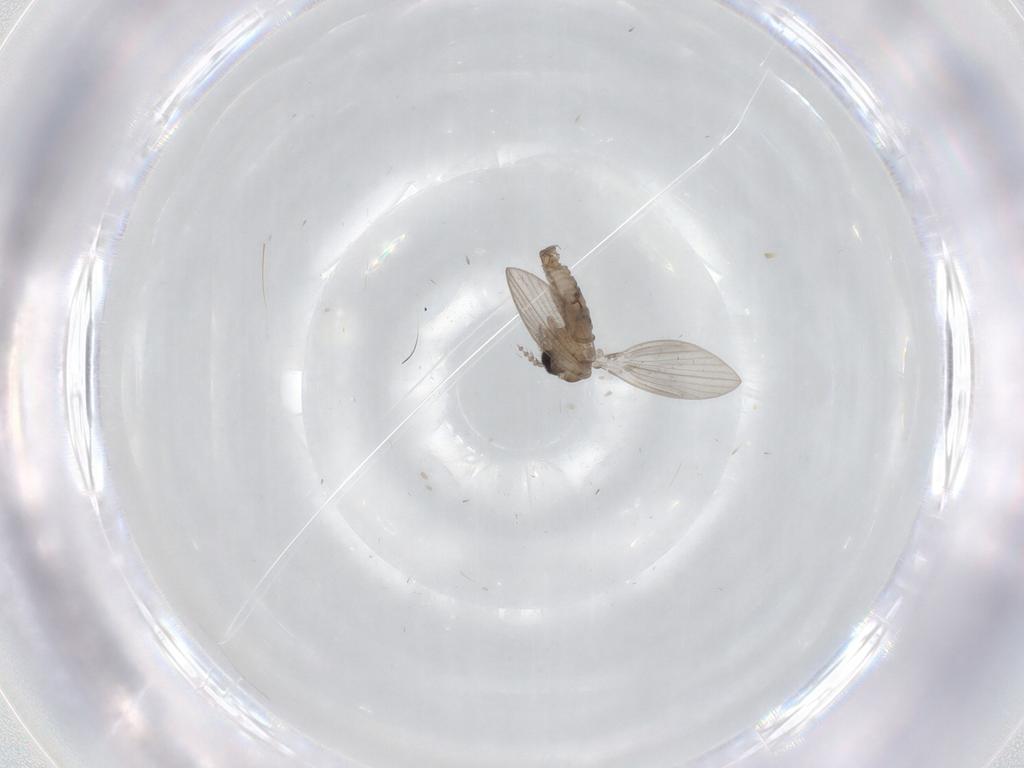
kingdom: Animalia
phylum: Arthropoda
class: Insecta
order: Diptera
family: Psychodidae
